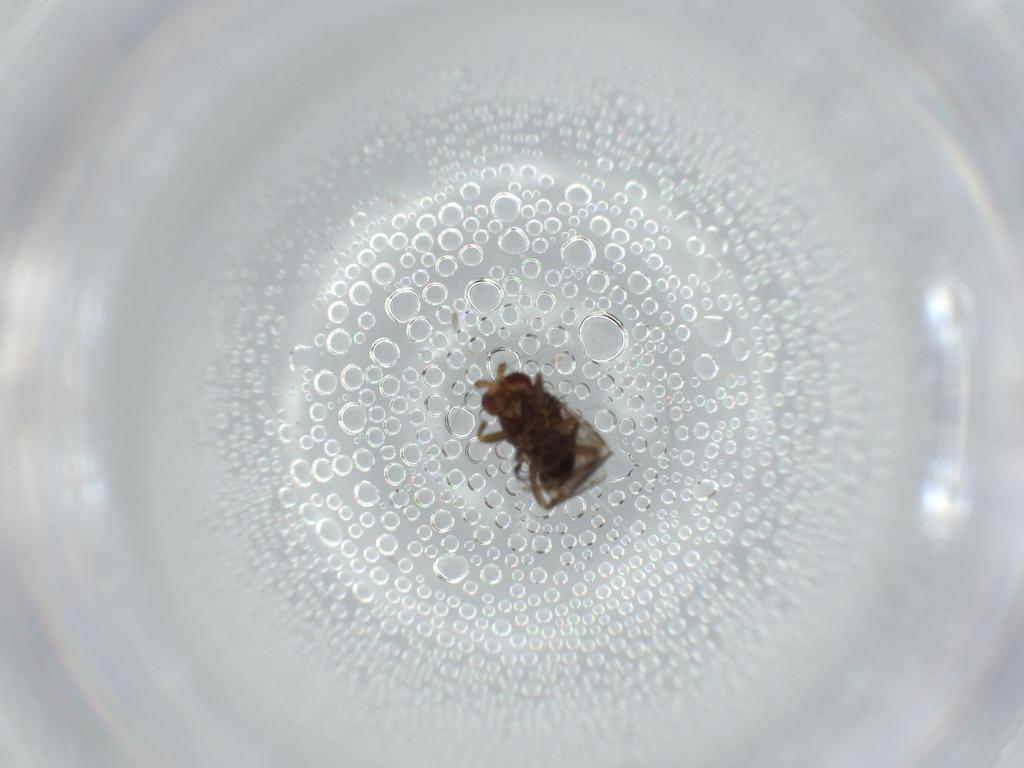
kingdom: Animalia
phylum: Arthropoda
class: Insecta
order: Diptera
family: Ceratopogonidae
